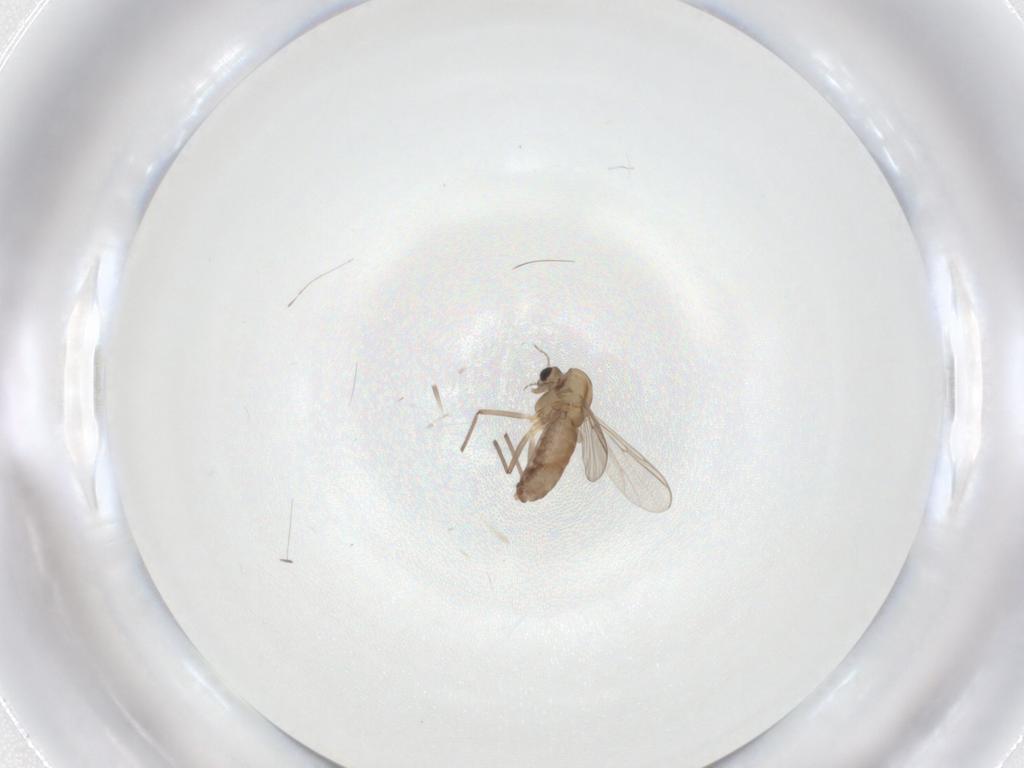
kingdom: Animalia
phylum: Arthropoda
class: Insecta
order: Diptera
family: Chironomidae
